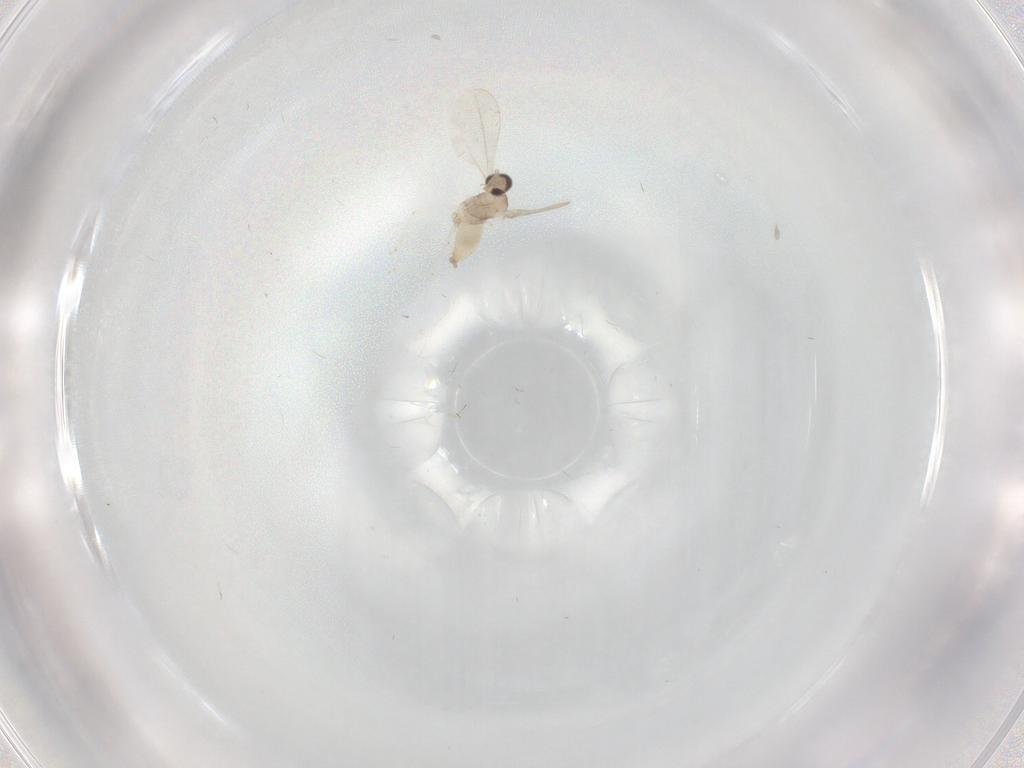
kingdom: Animalia
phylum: Arthropoda
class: Insecta
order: Diptera
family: Cecidomyiidae
